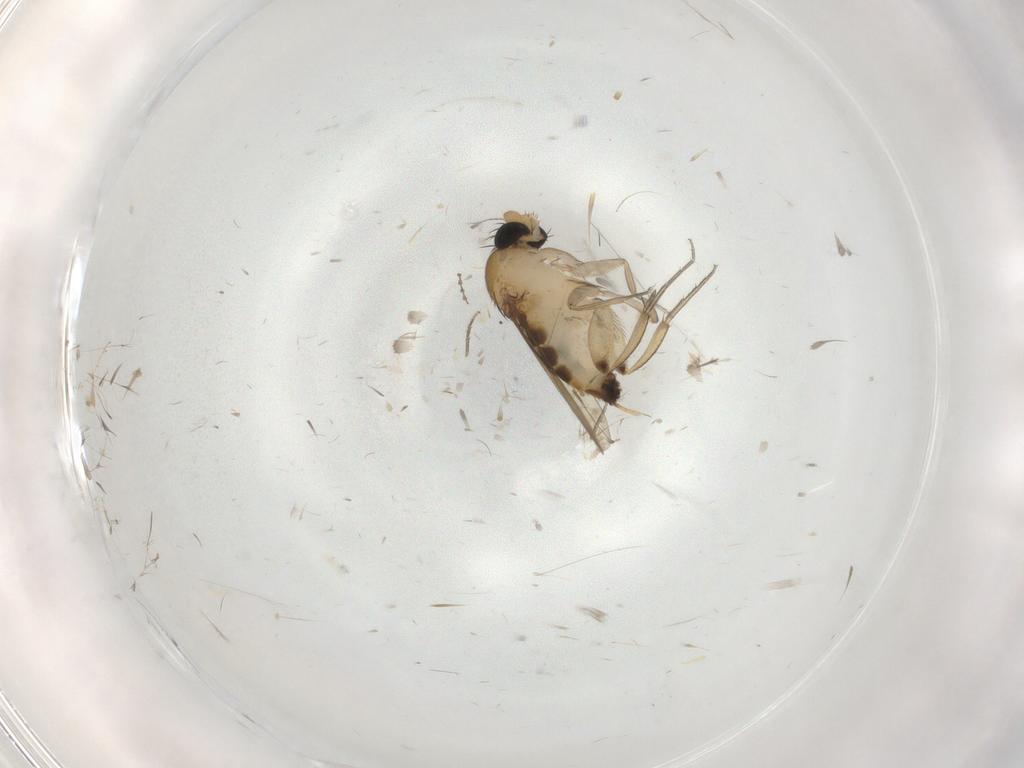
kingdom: Animalia
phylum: Arthropoda
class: Insecta
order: Diptera
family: Phoridae
